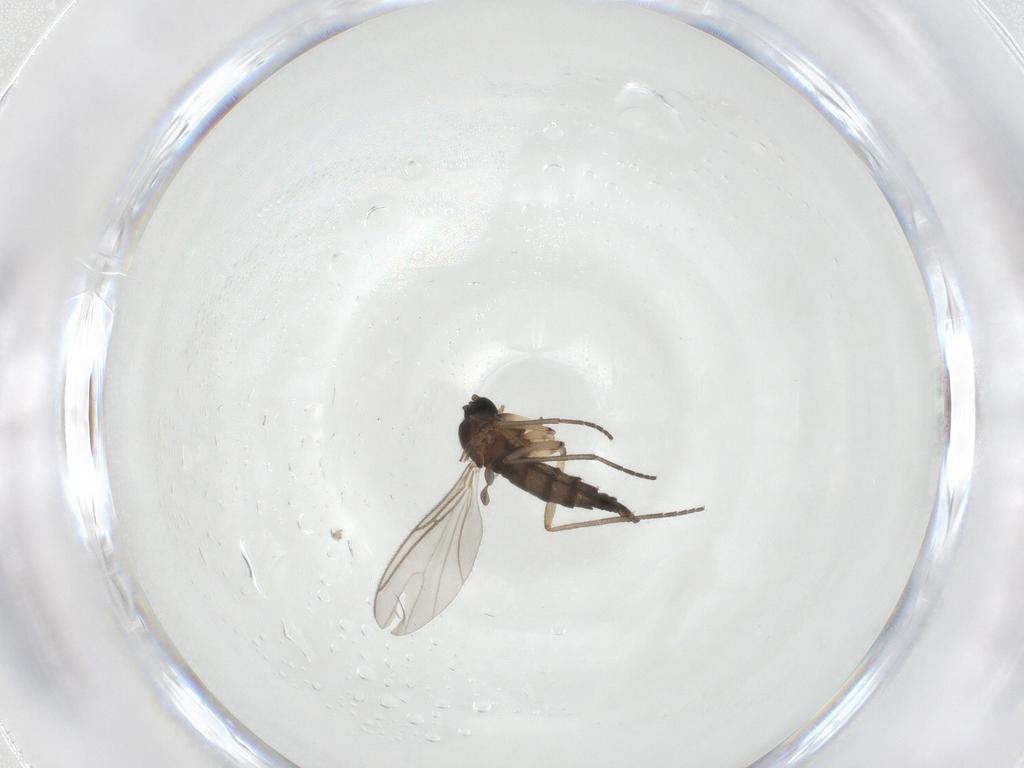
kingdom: Animalia
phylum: Arthropoda
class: Insecta
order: Diptera
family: Sciaridae
